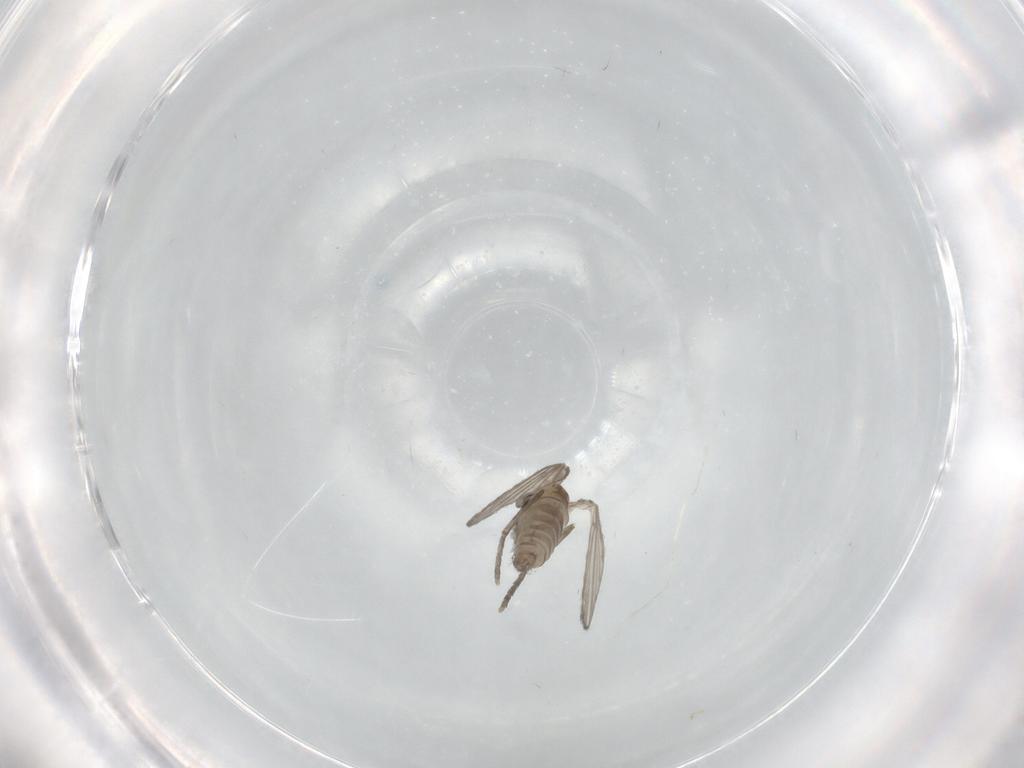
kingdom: Animalia
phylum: Arthropoda
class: Insecta
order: Diptera
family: Psychodidae
